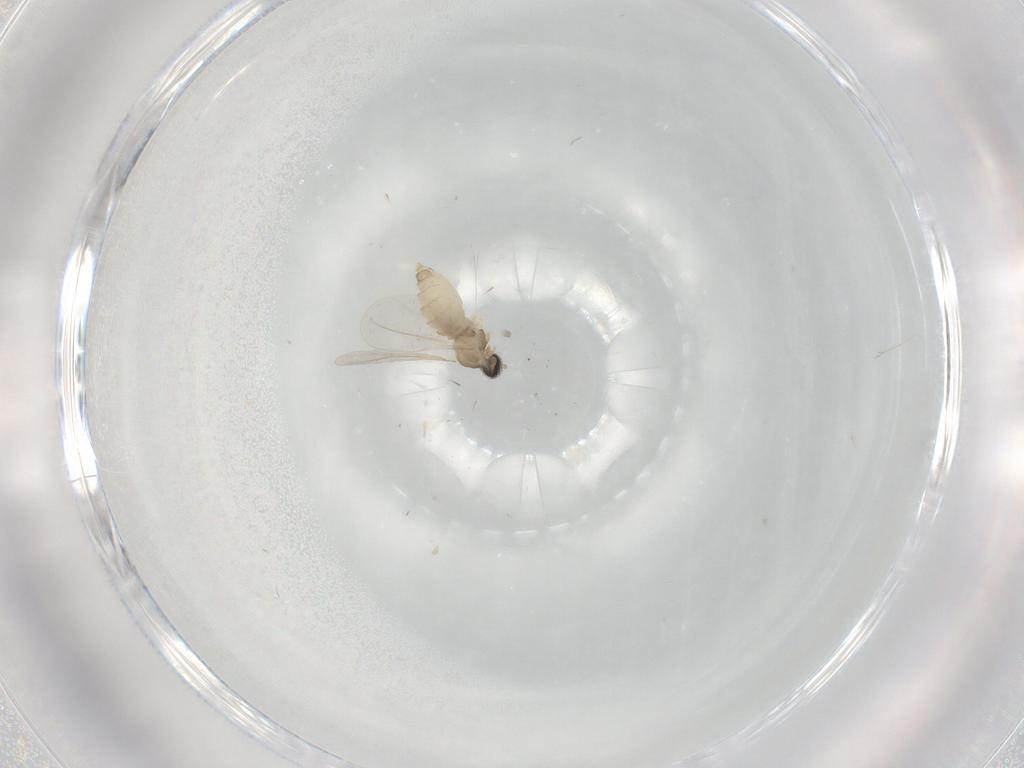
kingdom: Animalia
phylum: Arthropoda
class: Insecta
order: Diptera
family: Cecidomyiidae
